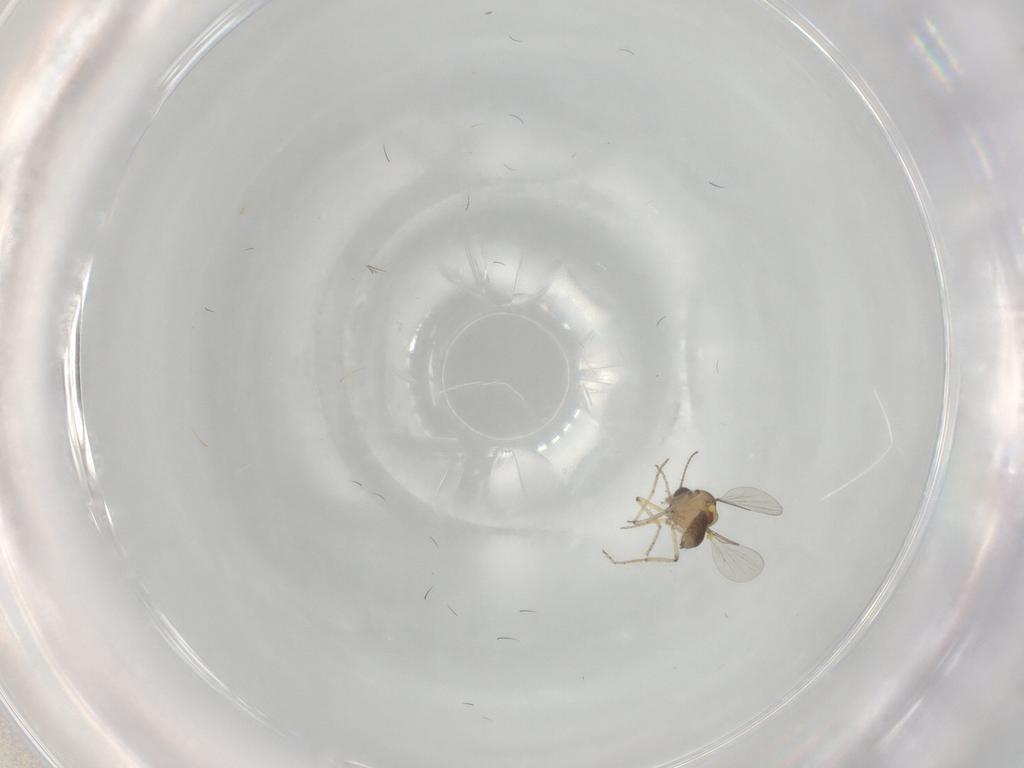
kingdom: Animalia
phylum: Arthropoda
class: Insecta
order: Diptera
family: Ceratopogonidae
